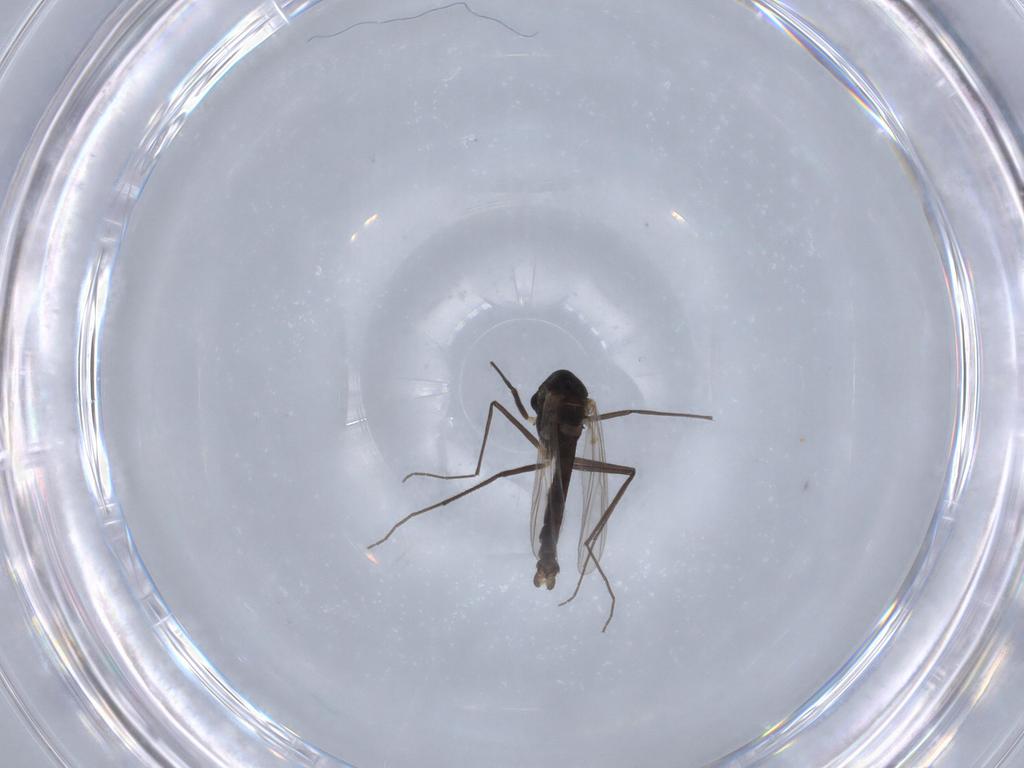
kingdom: Animalia
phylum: Arthropoda
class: Insecta
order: Diptera
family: Chironomidae
